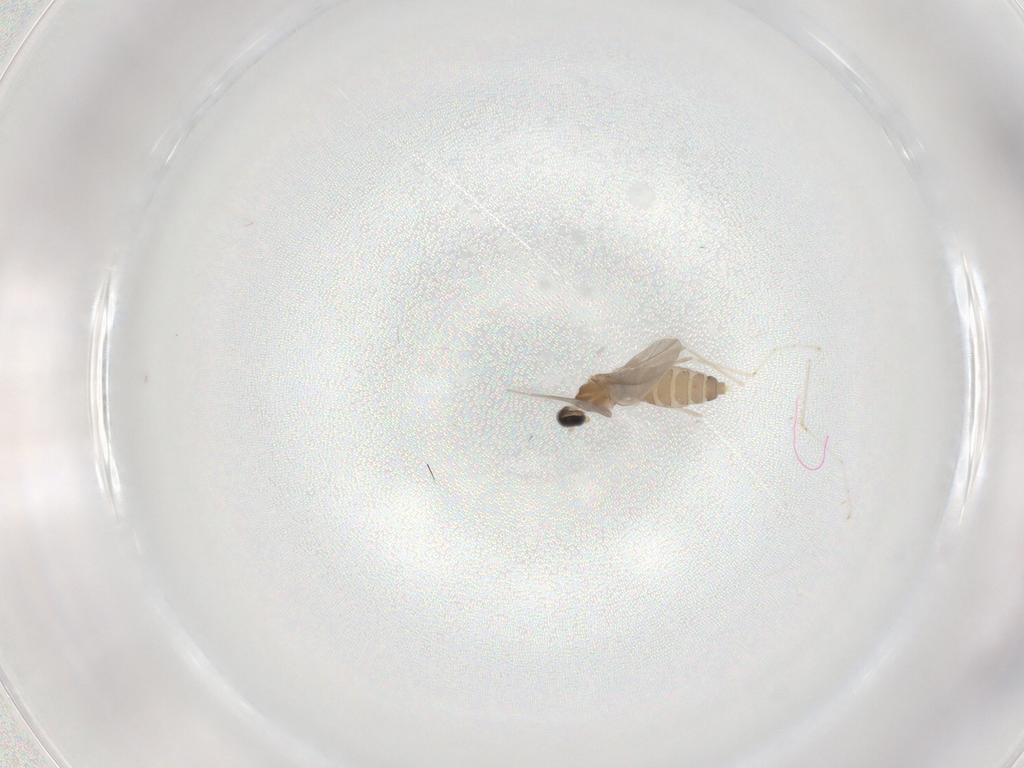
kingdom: Animalia
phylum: Arthropoda
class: Insecta
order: Diptera
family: Cecidomyiidae
